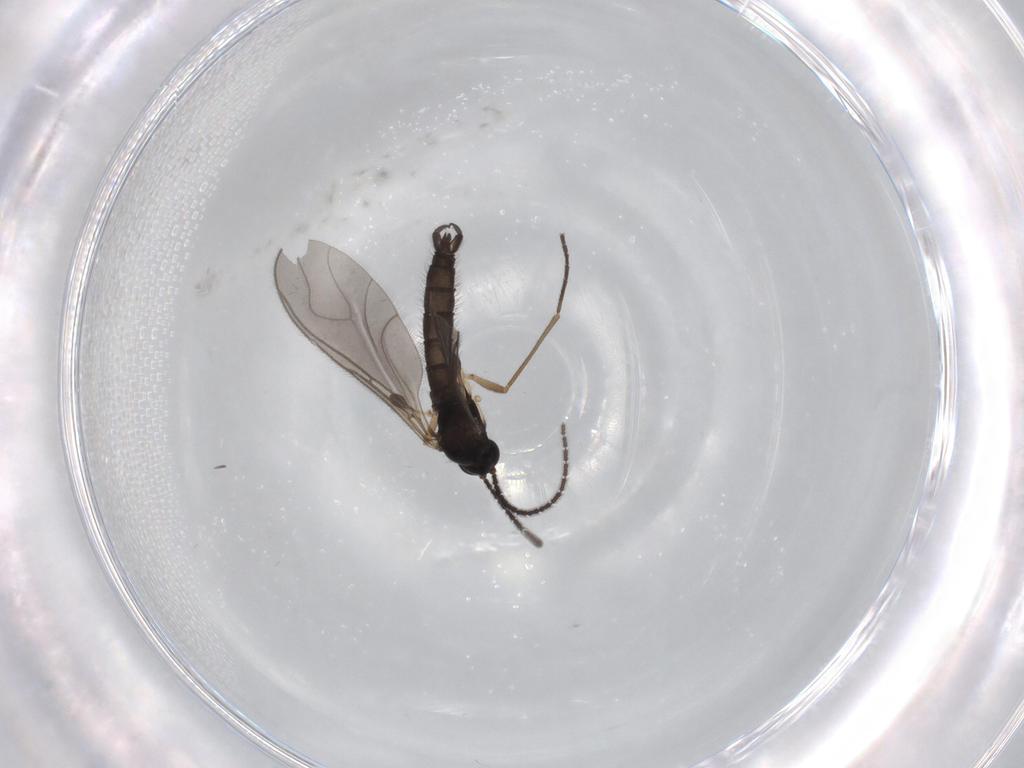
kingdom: Animalia
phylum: Arthropoda
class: Insecta
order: Diptera
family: Sciaridae
